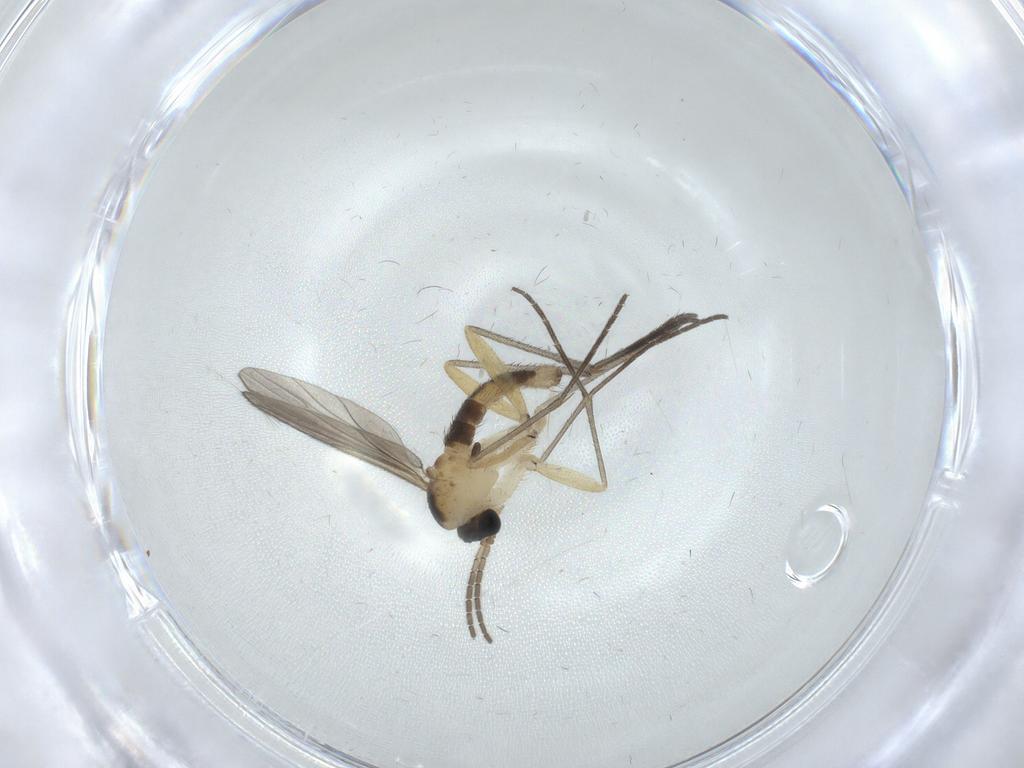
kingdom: Animalia
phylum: Arthropoda
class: Insecta
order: Diptera
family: Sciaridae
